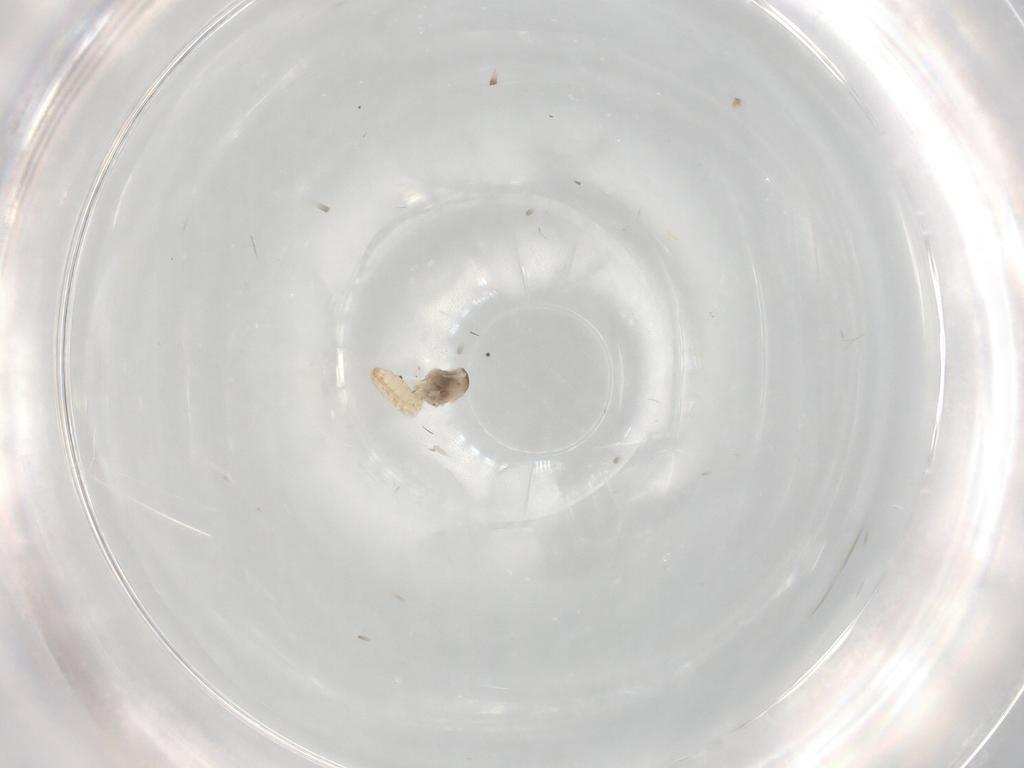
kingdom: Animalia
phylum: Arthropoda
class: Insecta
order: Diptera
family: Cecidomyiidae
